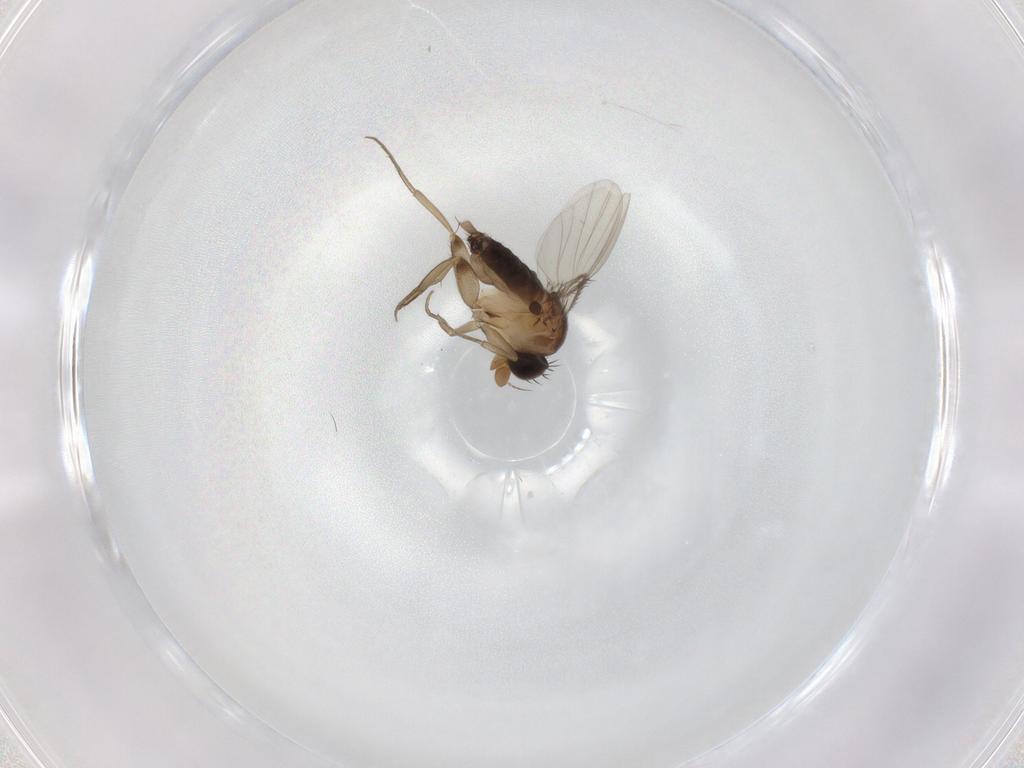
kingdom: Animalia
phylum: Arthropoda
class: Insecta
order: Diptera
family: Phoridae
